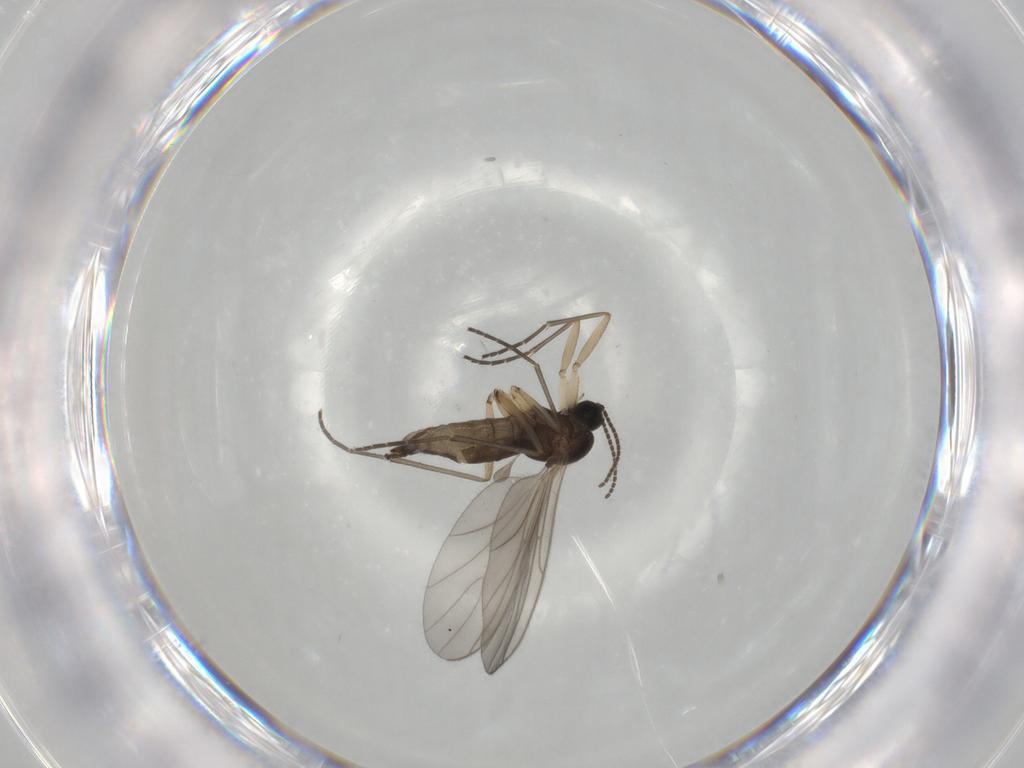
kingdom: Animalia
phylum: Arthropoda
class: Insecta
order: Diptera
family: Sciaridae
